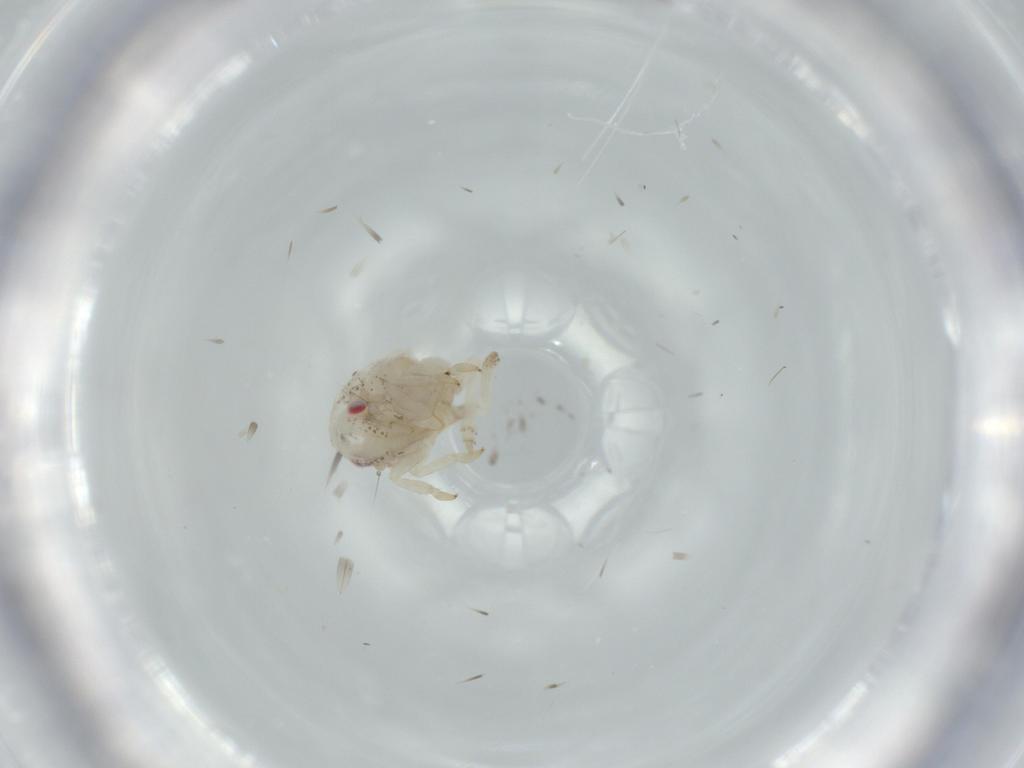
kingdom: Animalia
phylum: Arthropoda
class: Insecta
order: Hemiptera
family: Acanaloniidae
